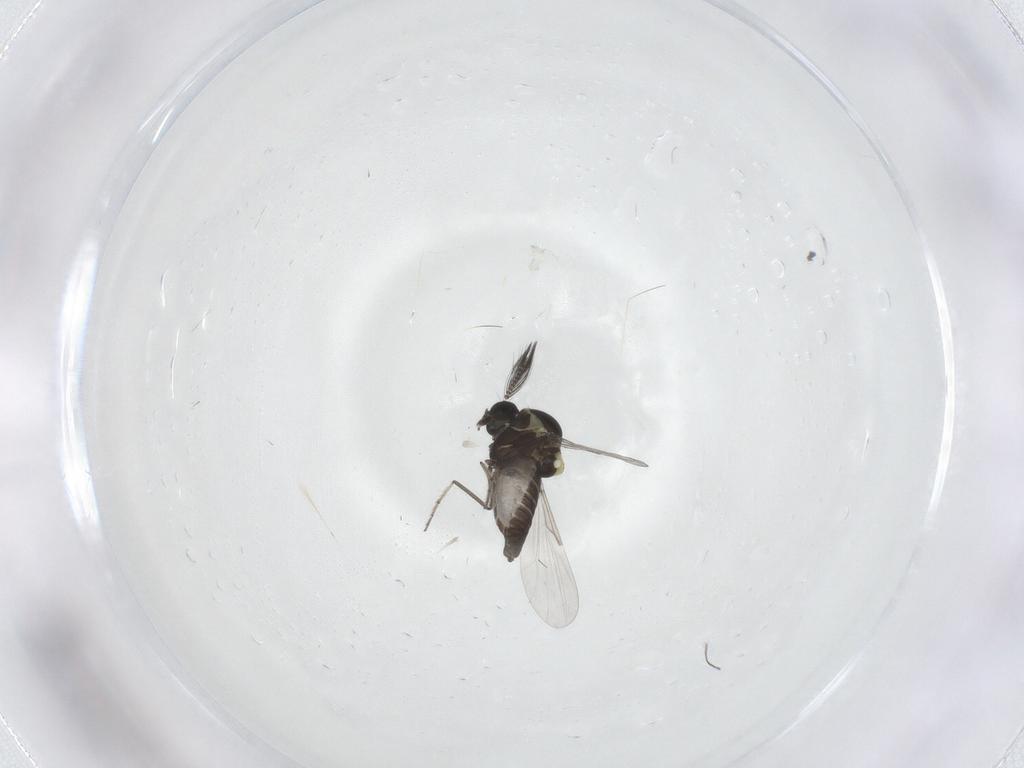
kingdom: Animalia
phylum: Arthropoda
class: Insecta
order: Diptera
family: Ceratopogonidae
